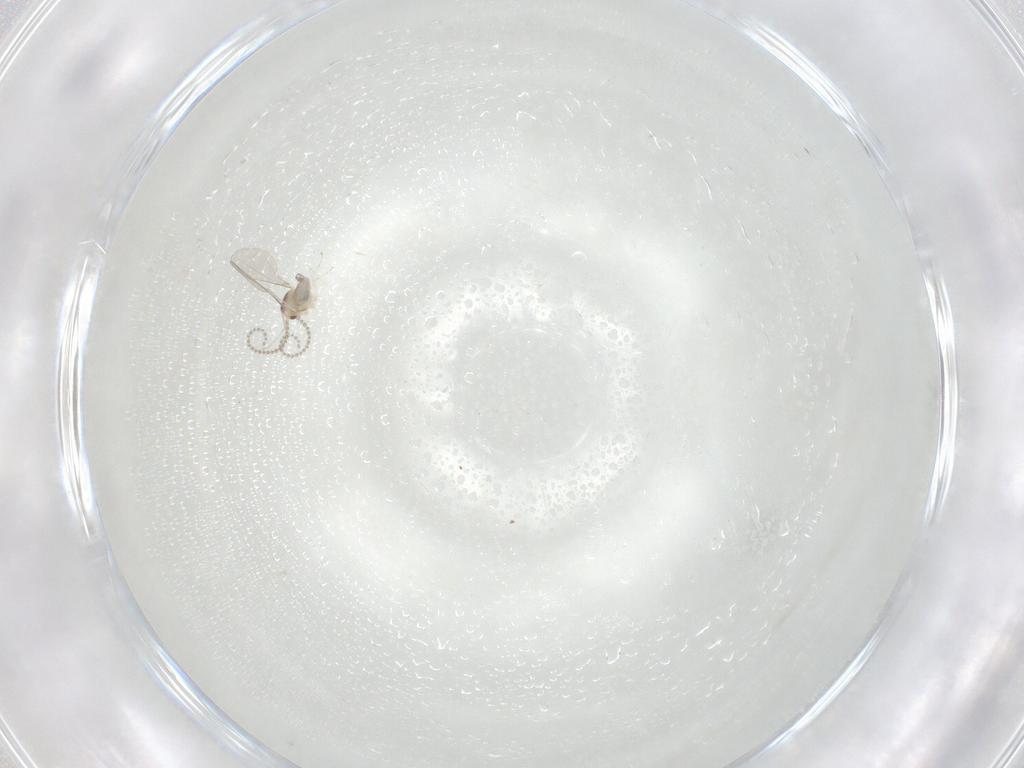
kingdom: Animalia
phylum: Arthropoda
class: Insecta
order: Diptera
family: Cecidomyiidae
